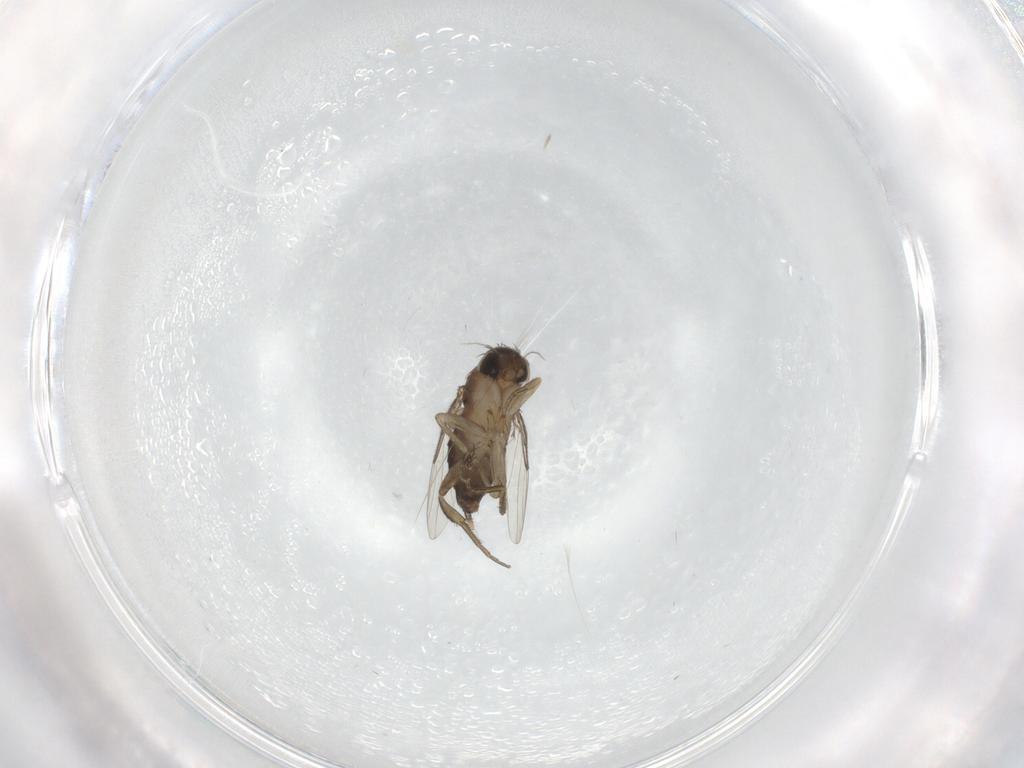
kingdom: Animalia
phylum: Arthropoda
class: Insecta
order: Diptera
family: Phoridae
